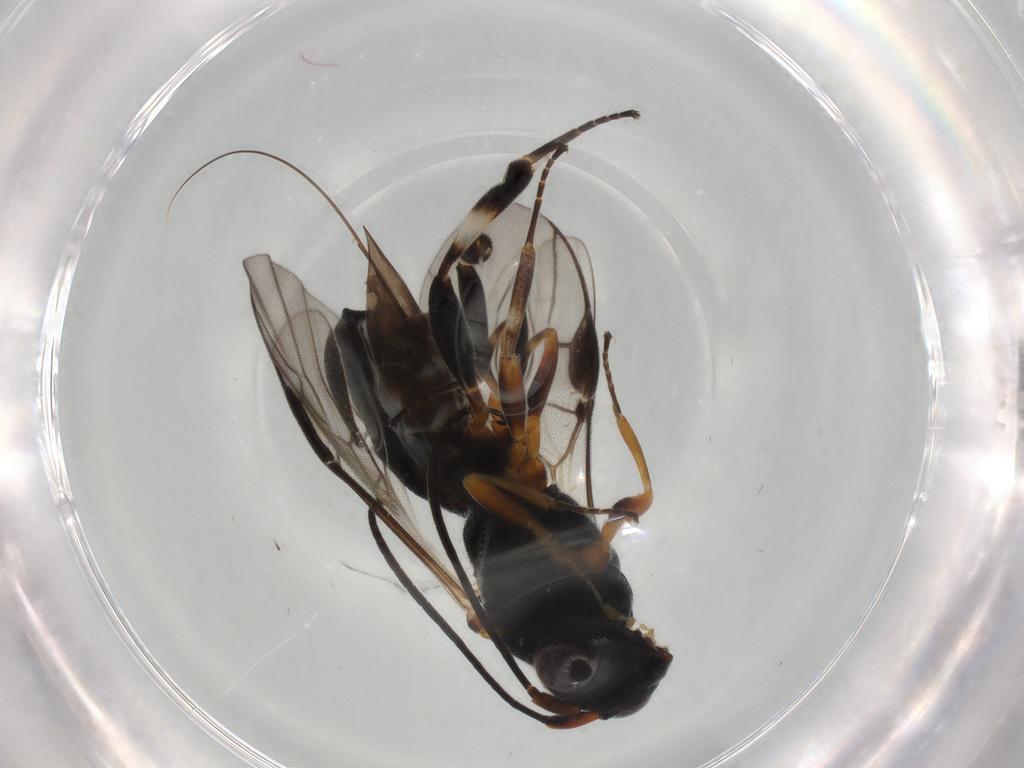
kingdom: Animalia
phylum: Arthropoda
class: Insecta
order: Hymenoptera
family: Braconidae
